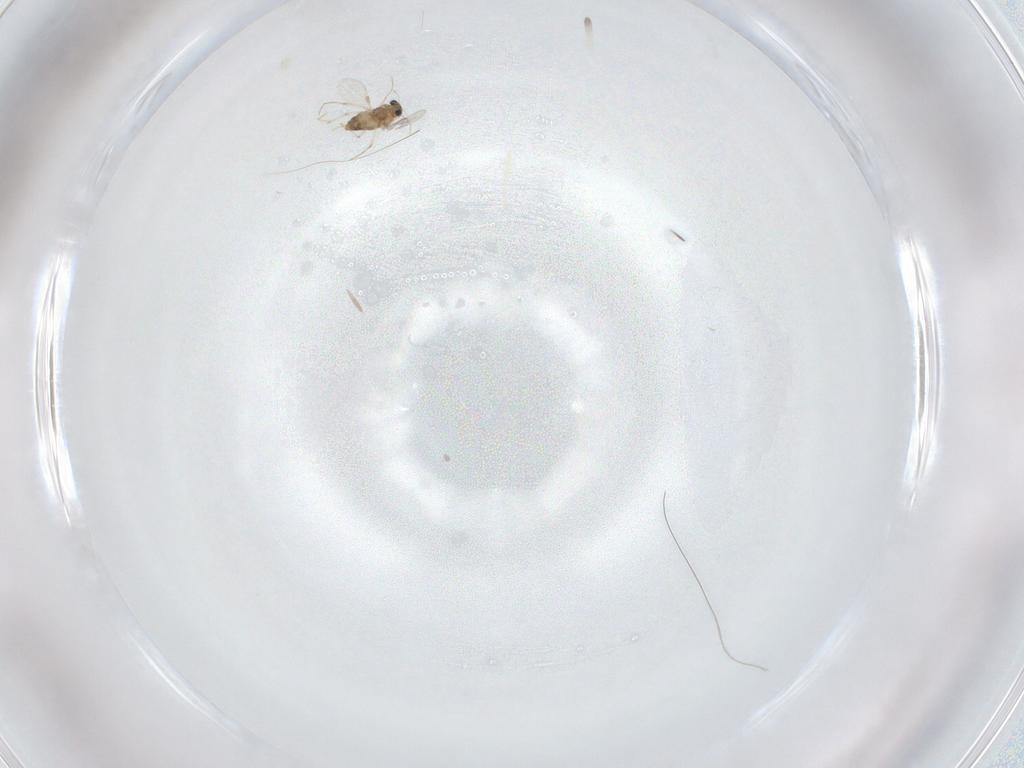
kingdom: Animalia
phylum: Arthropoda
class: Insecta
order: Diptera
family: Chironomidae
